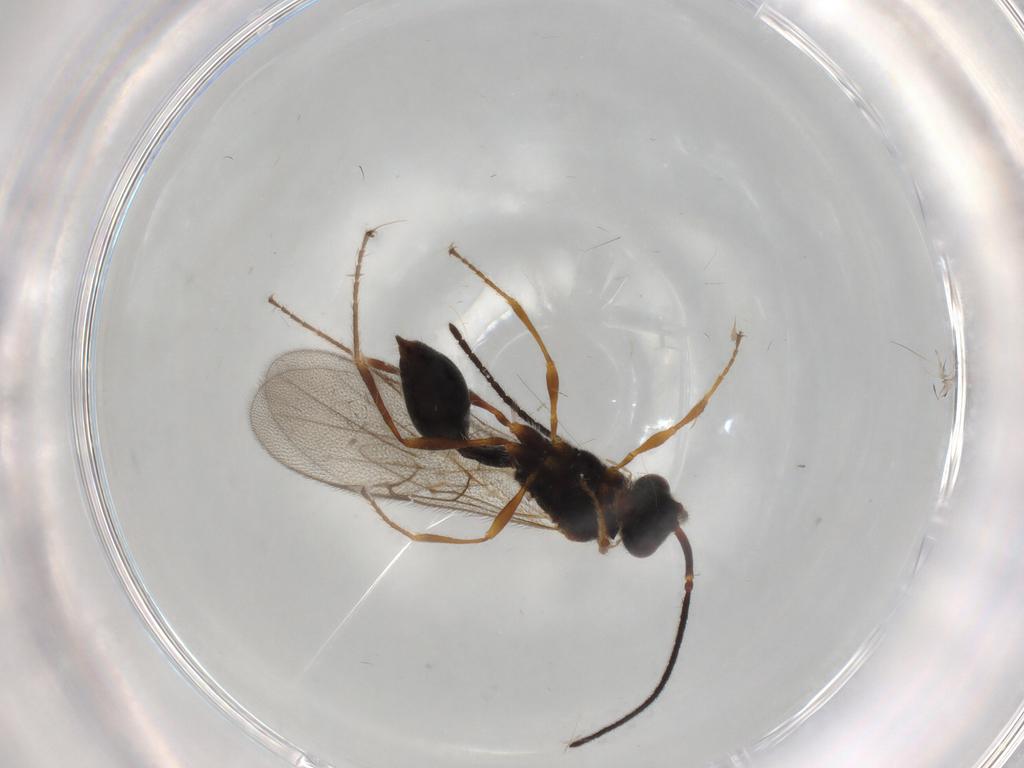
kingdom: Animalia
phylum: Arthropoda
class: Insecta
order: Hymenoptera
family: Diapriidae
